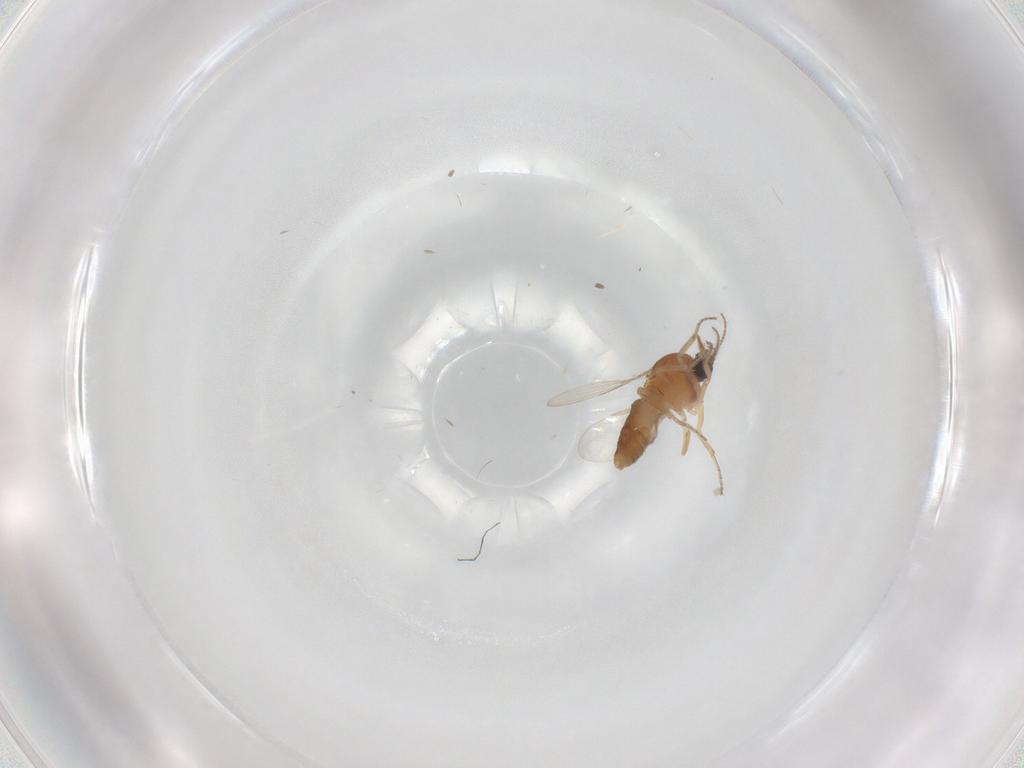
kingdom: Animalia
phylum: Arthropoda
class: Insecta
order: Diptera
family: Ceratopogonidae
